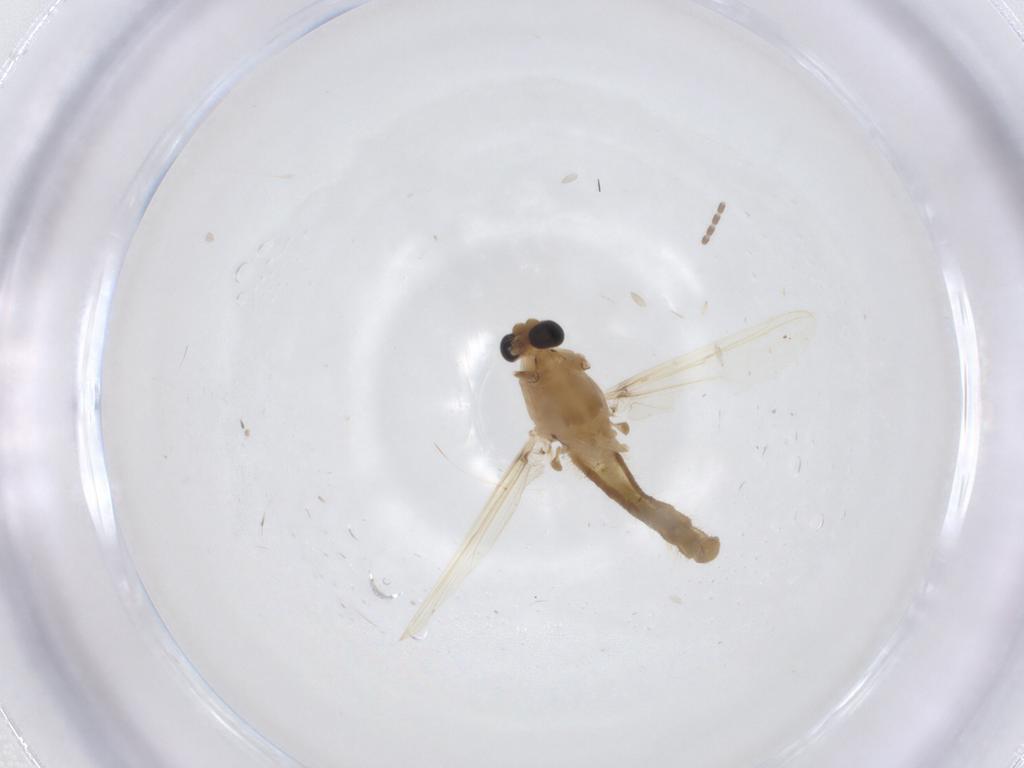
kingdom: Animalia
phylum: Arthropoda
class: Insecta
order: Diptera
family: Chironomidae
